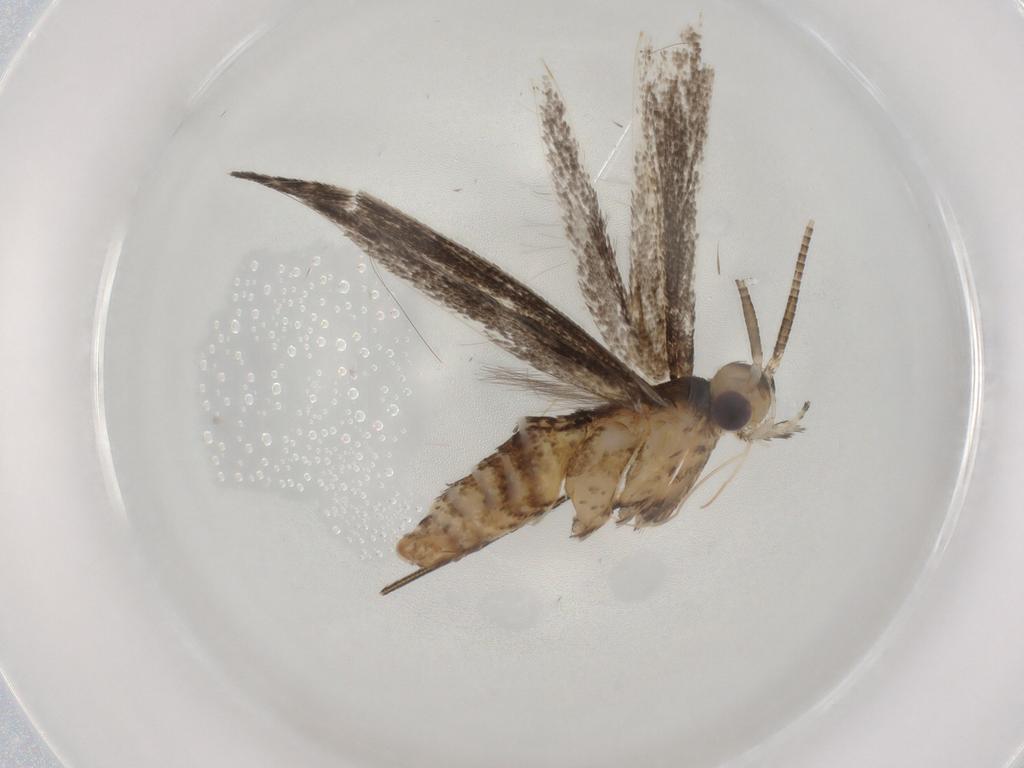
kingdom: Animalia
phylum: Arthropoda
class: Insecta
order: Lepidoptera
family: Gracillariidae
